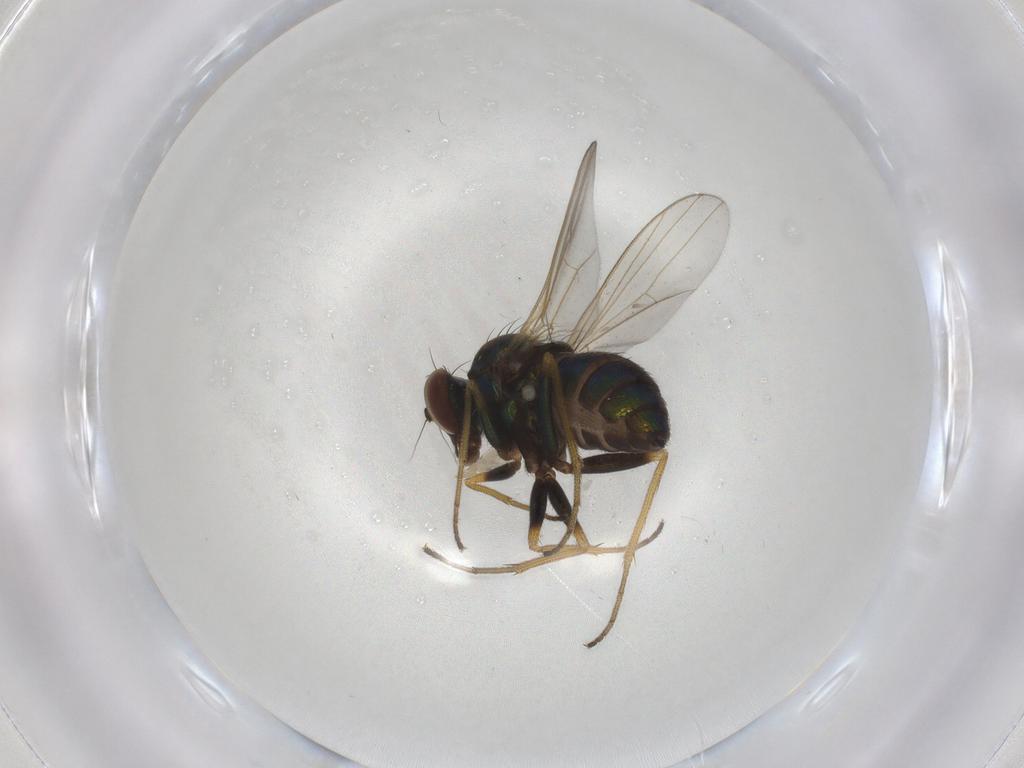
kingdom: Animalia
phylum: Arthropoda
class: Insecta
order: Diptera
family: Dolichopodidae
